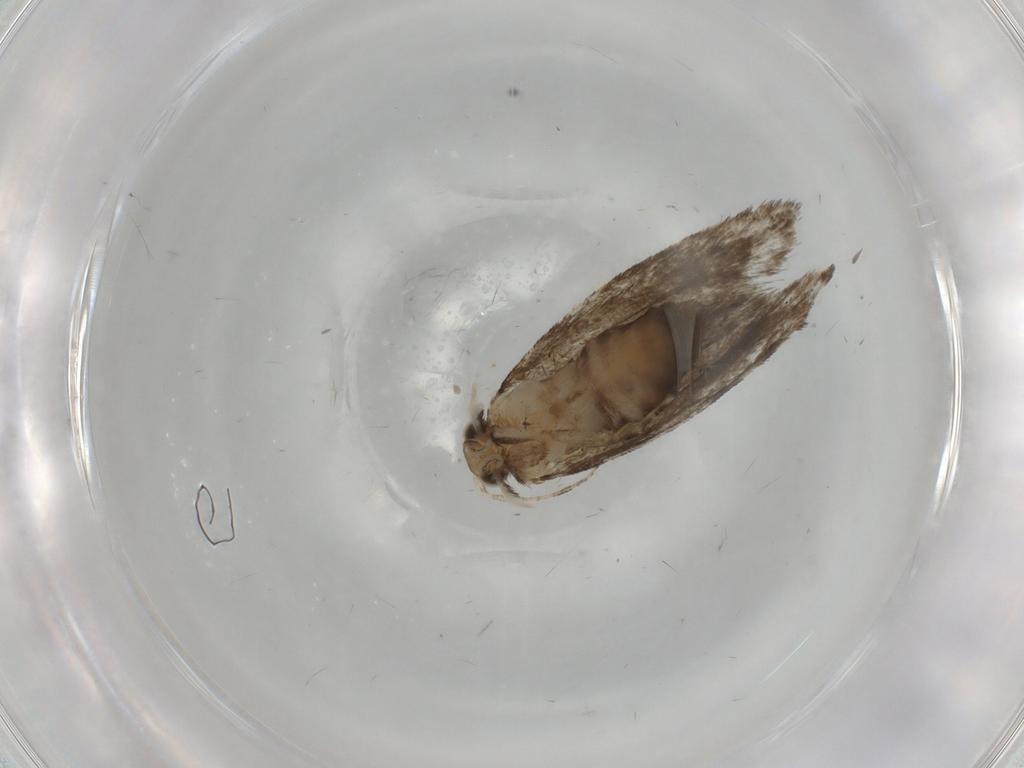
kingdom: Animalia
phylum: Arthropoda
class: Insecta
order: Lepidoptera
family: Tineidae
